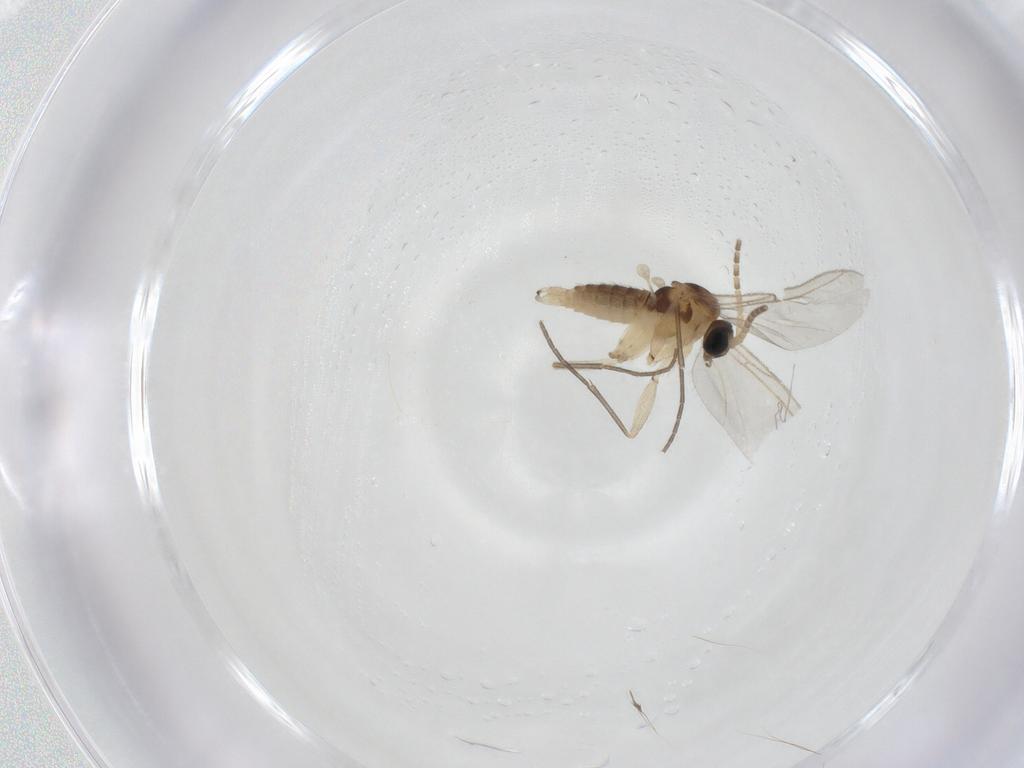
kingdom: Animalia
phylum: Arthropoda
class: Insecta
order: Diptera
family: Sciaridae
